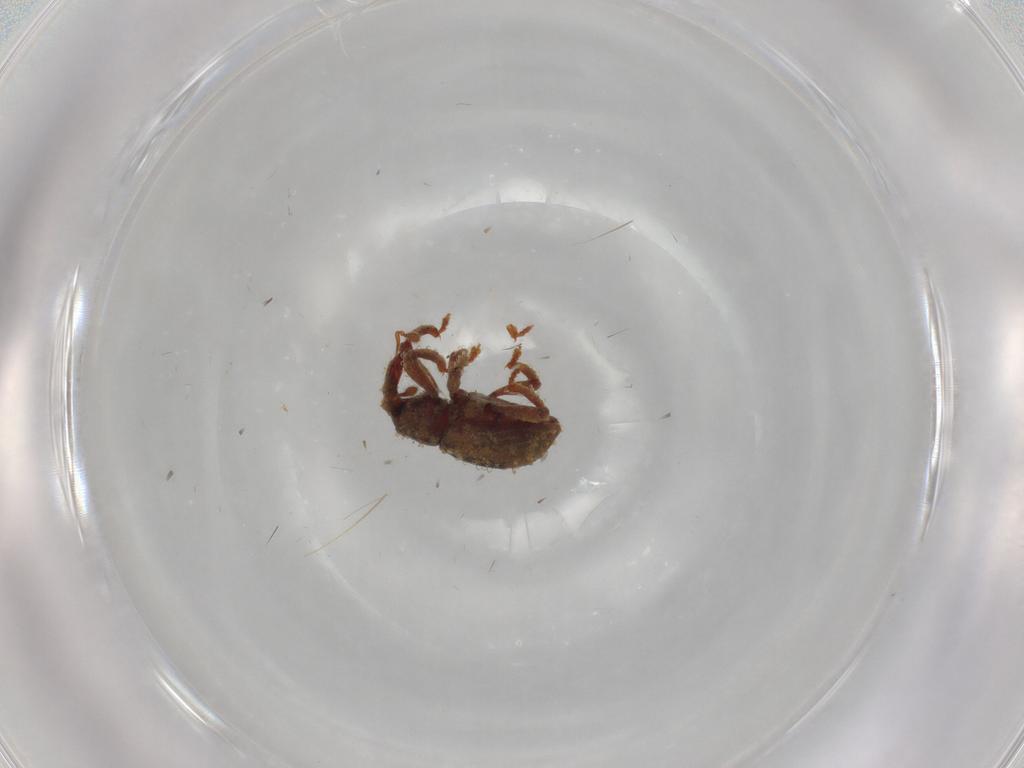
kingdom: Animalia
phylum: Arthropoda
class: Insecta
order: Coleoptera
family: Curculionidae
